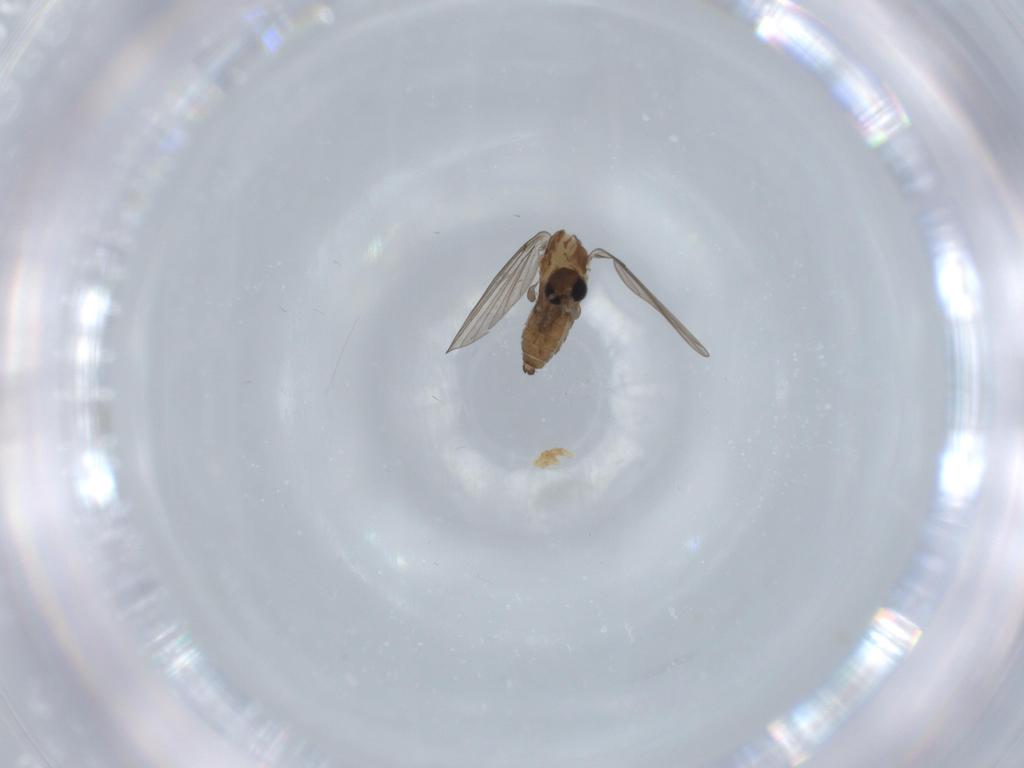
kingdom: Animalia
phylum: Arthropoda
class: Insecta
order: Diptera
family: Psychodidae
